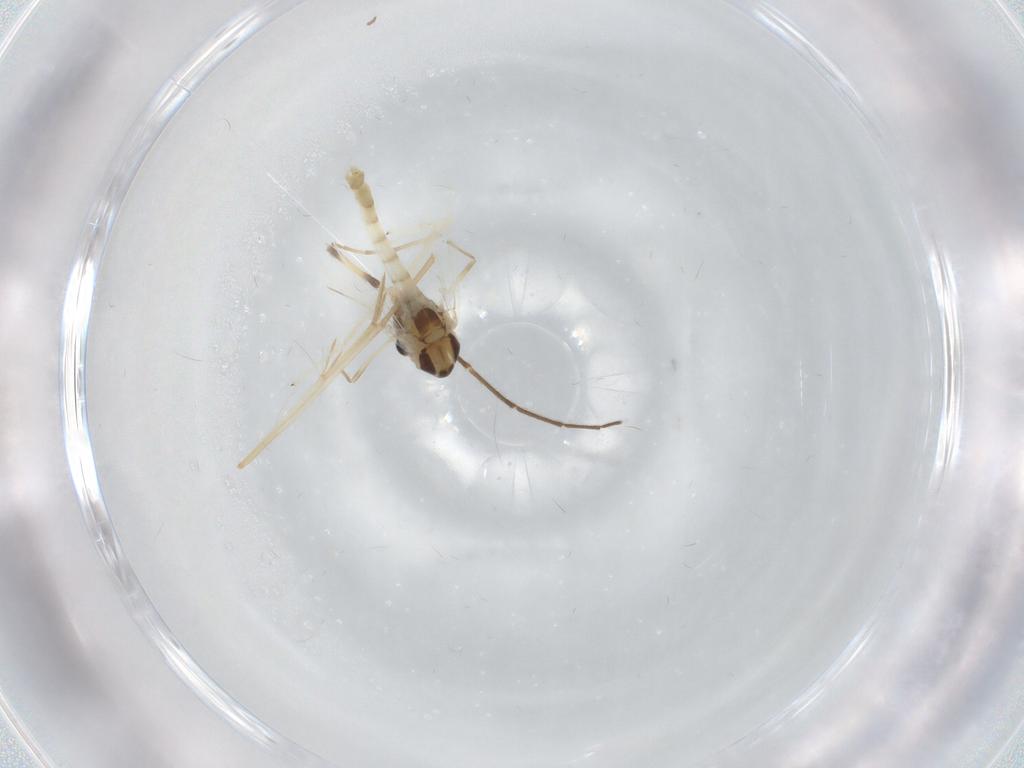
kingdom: Animalia
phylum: Arthropoda
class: Insecta
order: Diptera
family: Chironomidae
